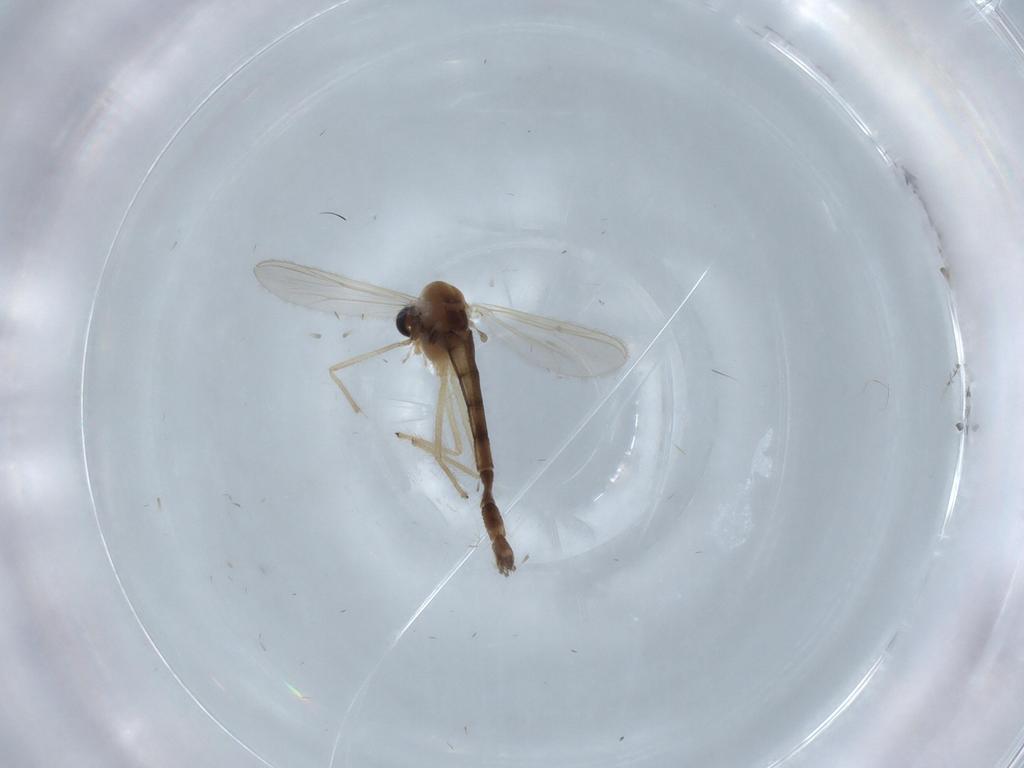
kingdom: Animalia
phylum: Arthropoda
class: Insecta
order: Diptera
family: Chironomidae
